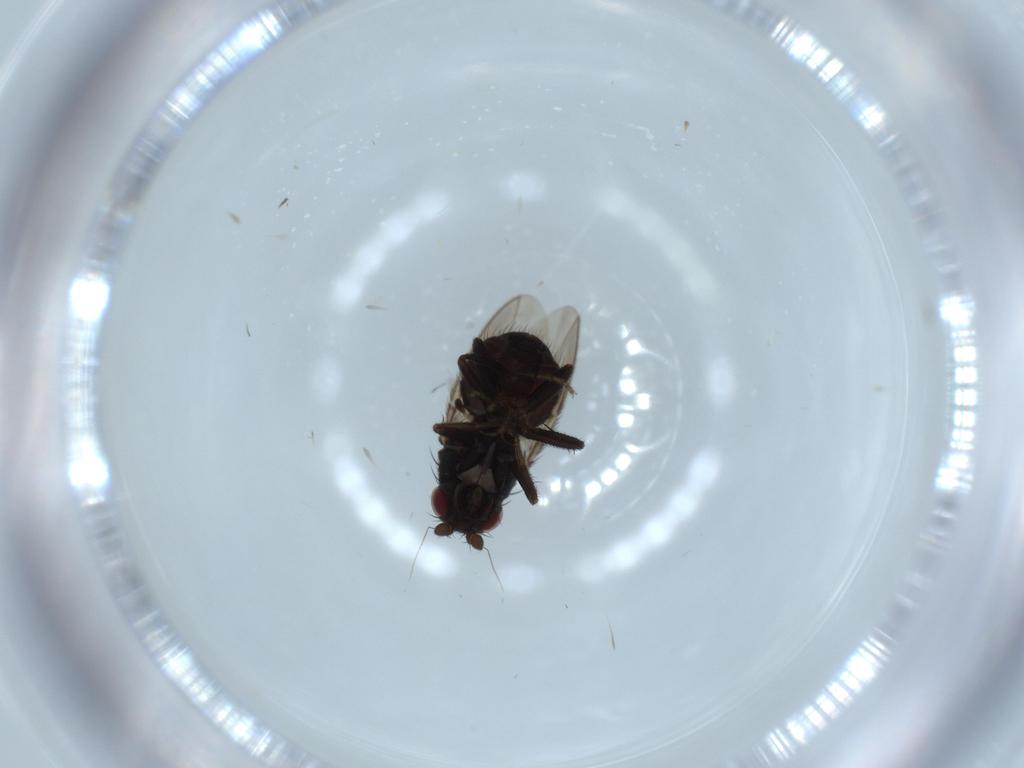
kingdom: Animalia
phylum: Arthropoda
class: Insecta
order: Diptera
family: Sphaeroceridae
